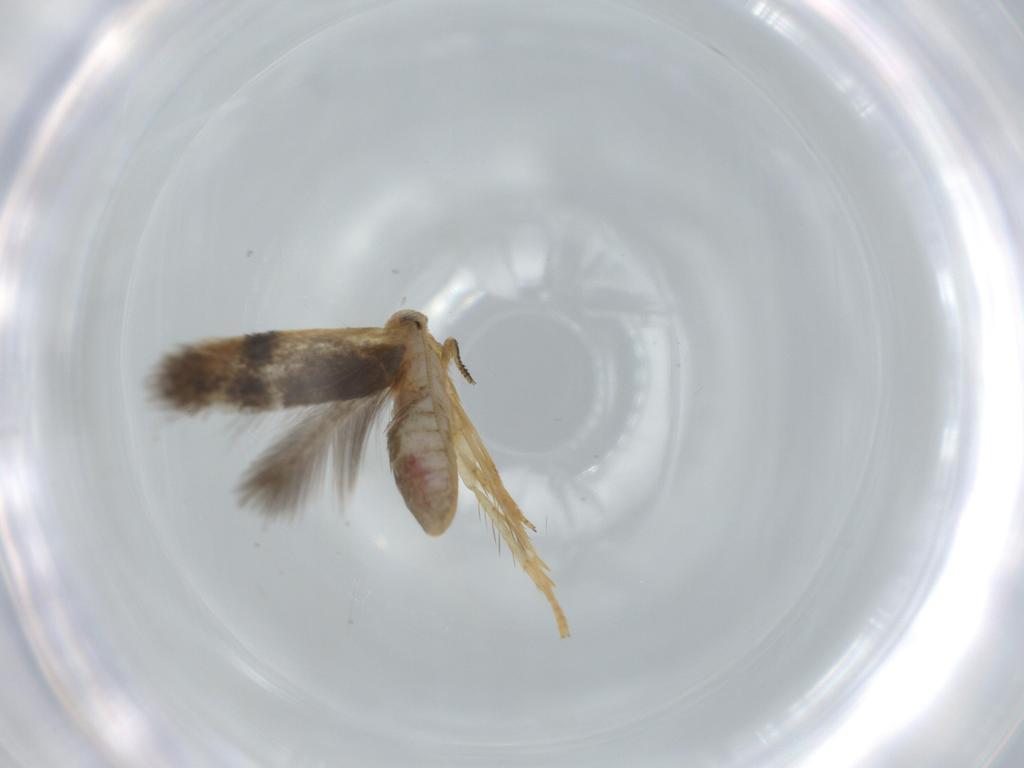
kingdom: Animalia
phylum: Arthropoda
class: Insecta
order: Lepidoptera
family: Nepticulidae
